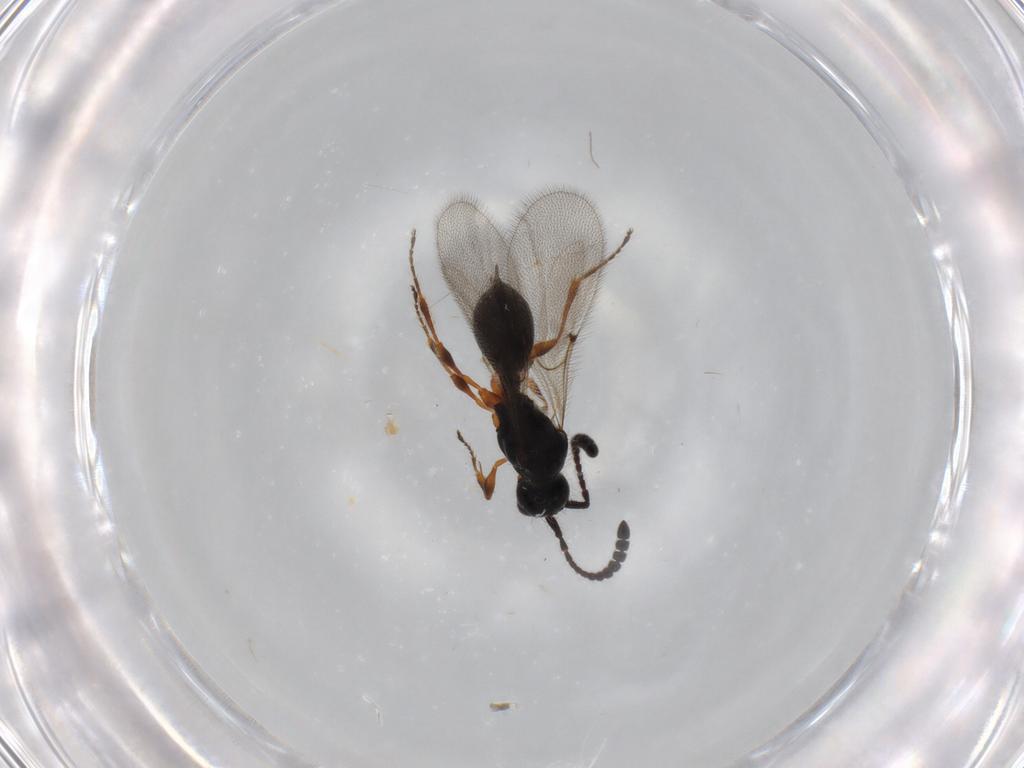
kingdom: Animalia
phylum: Arthropoda
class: Insecta
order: Hymenoptera
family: Diapriidae
